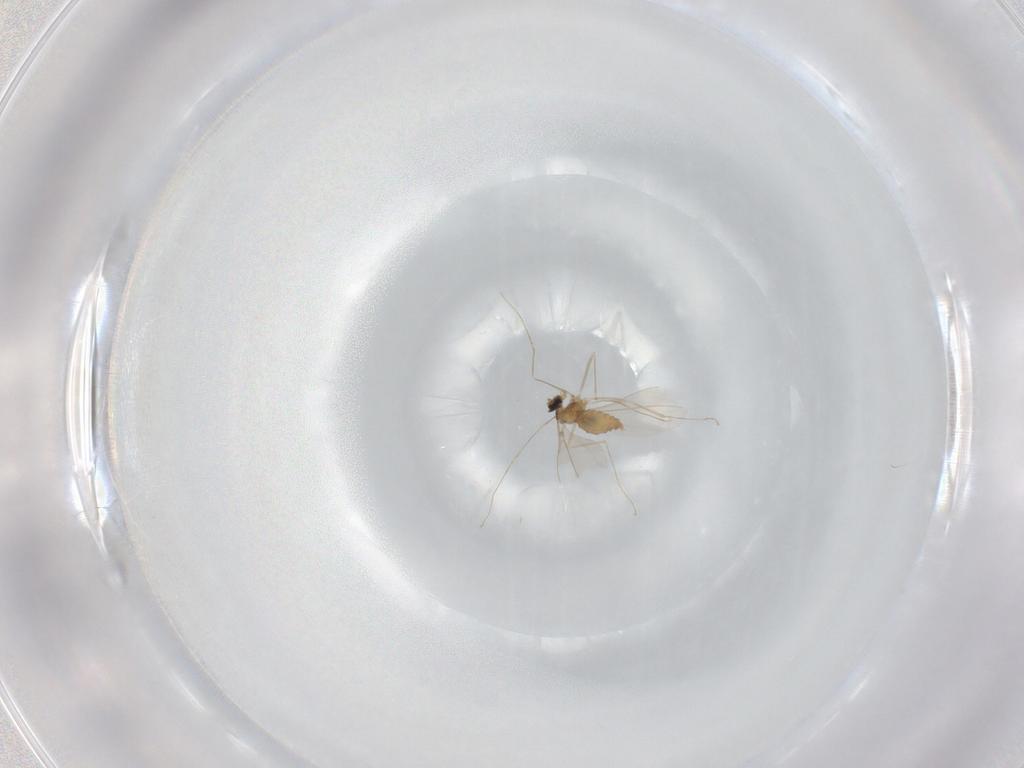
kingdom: Animalia
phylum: Arthropoda
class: Insecta
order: Diptera
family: Cecidomyiidae
